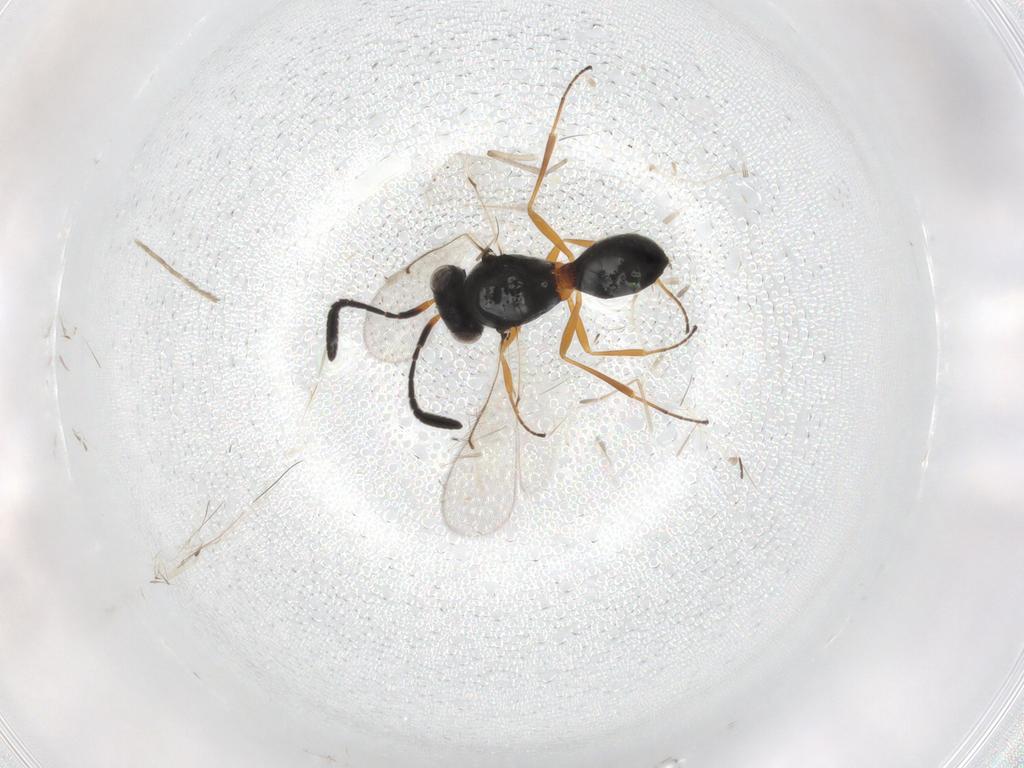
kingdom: Animalia
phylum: Arthropoda
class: Insecta
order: Hymenoptera
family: Scelionidae
